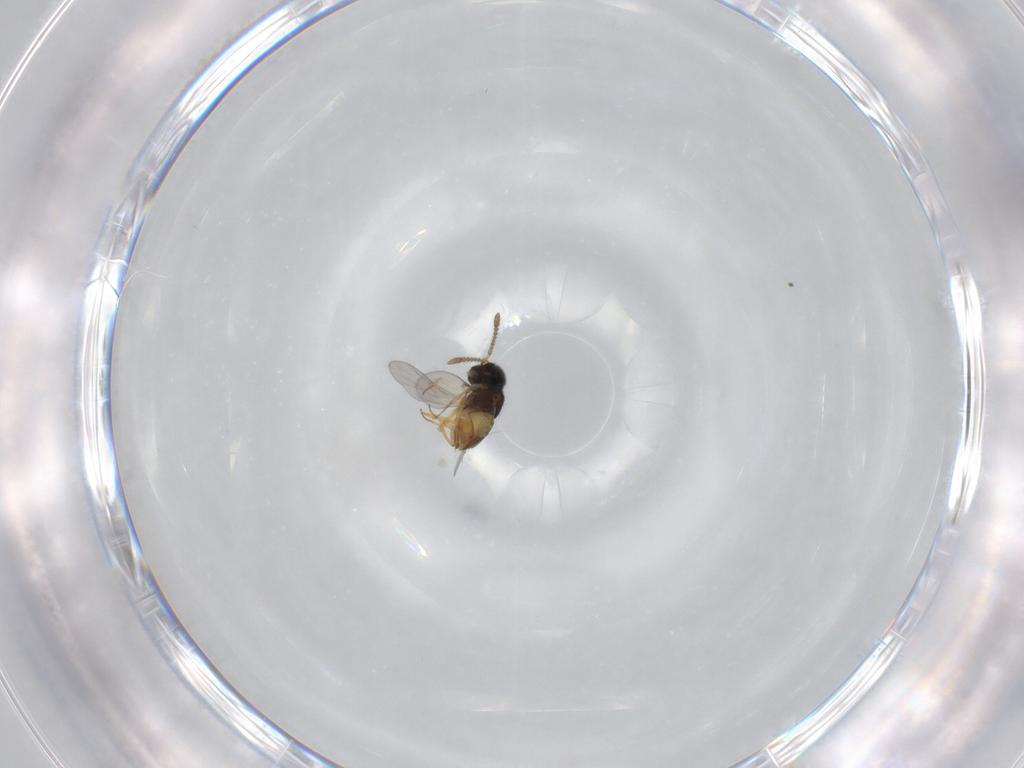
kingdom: Animalia
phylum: Arthropoda
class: Insecta
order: Hymenoptera
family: Encyrtidae
